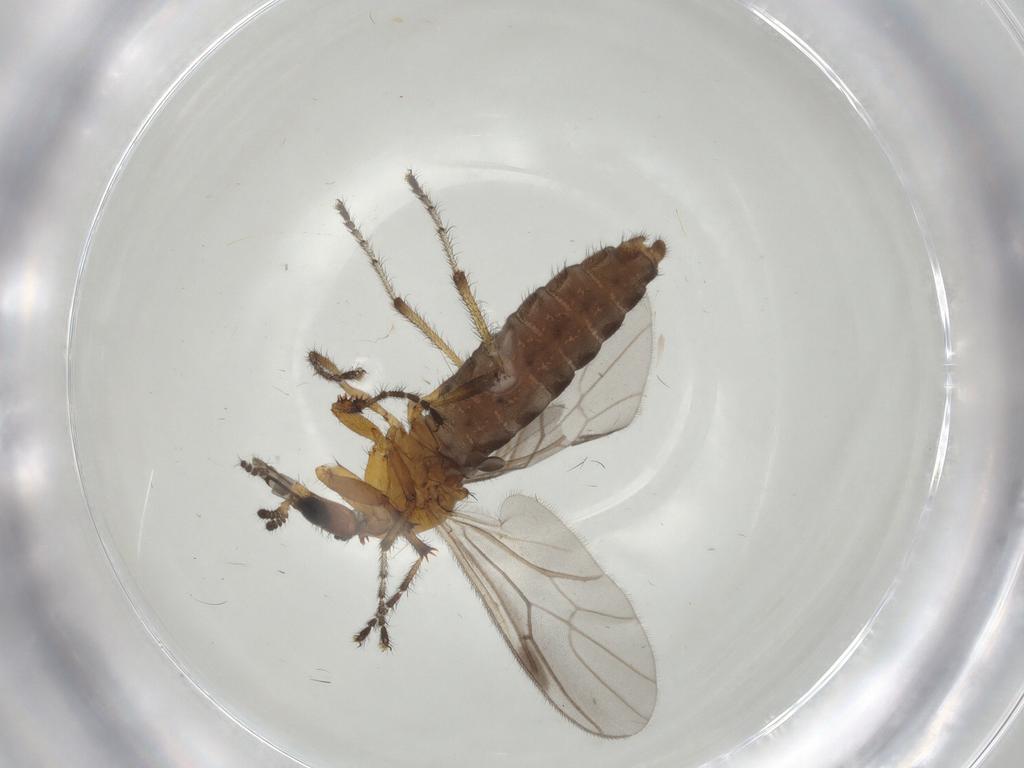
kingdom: Animalia
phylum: Arthropoda
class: Insecta
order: Diptera
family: Bibionidae
